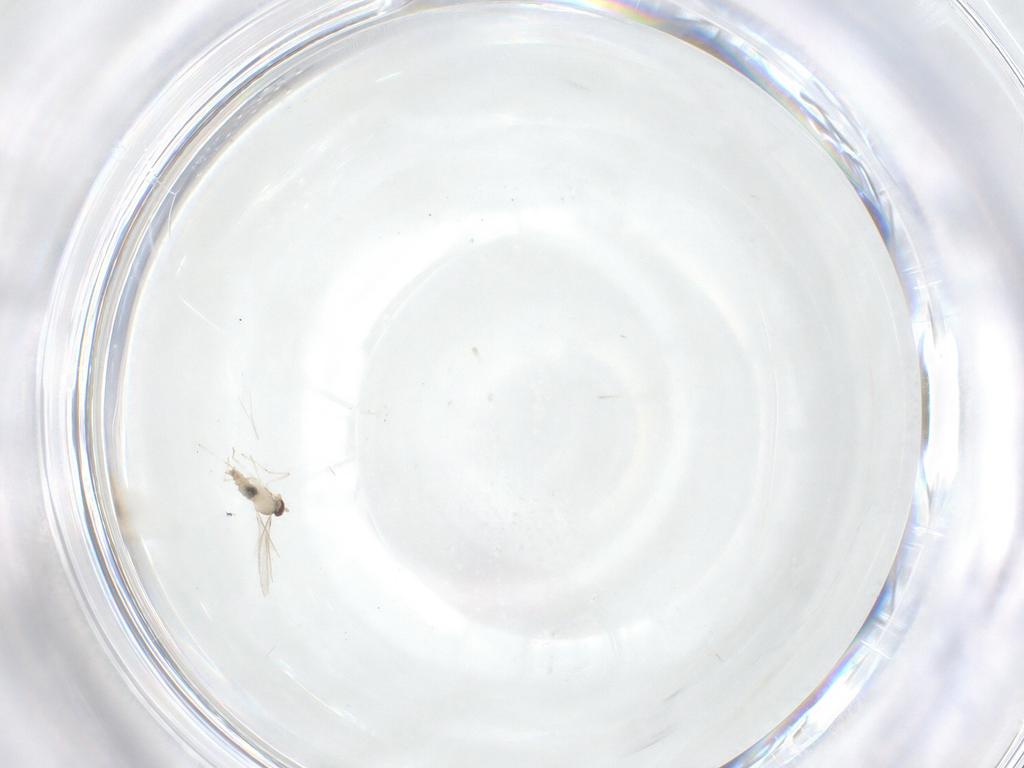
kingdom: Animalia
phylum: Arthropoda
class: Insecta
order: Diptera
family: Cecidomyiidae
